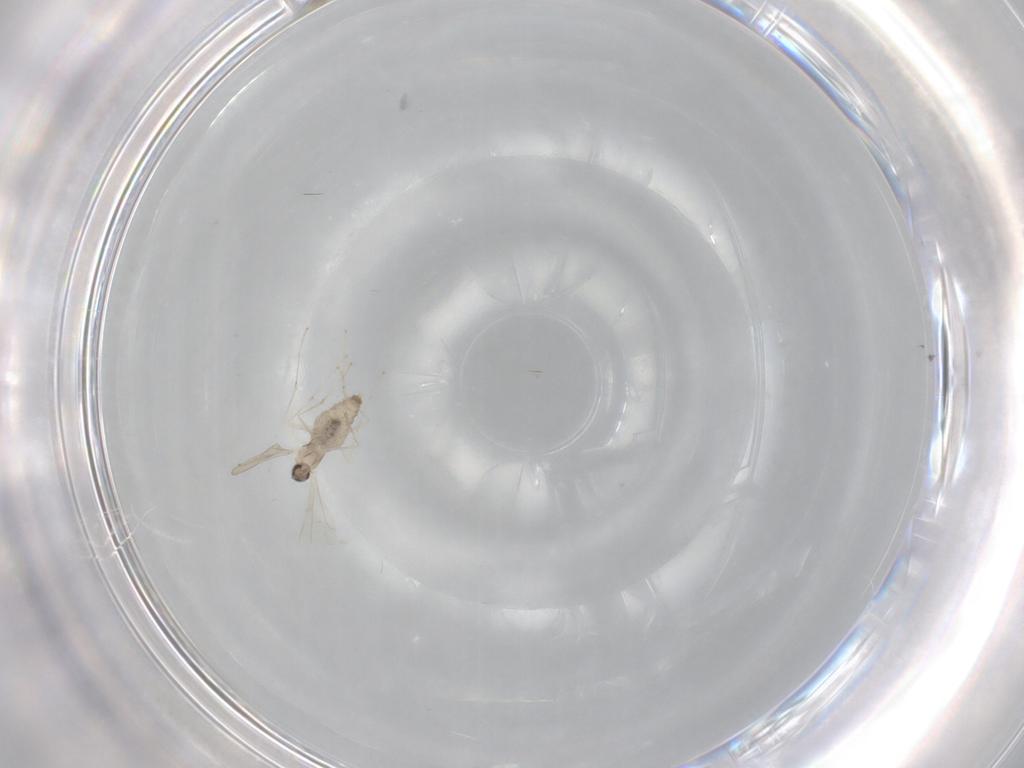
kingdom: Animalia
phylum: Arthropoda
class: Insecta
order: Diptera
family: Cecidomyiidae
